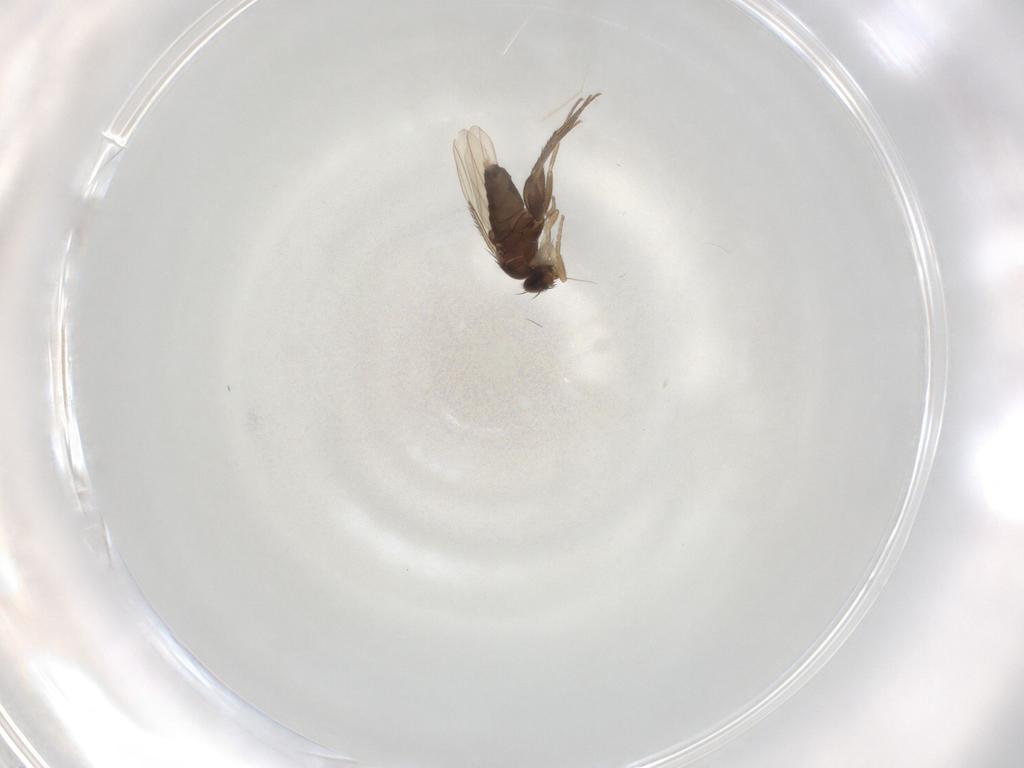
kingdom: Animalia
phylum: Arthropoda
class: Insecta
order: Diptera
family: Phoridae
